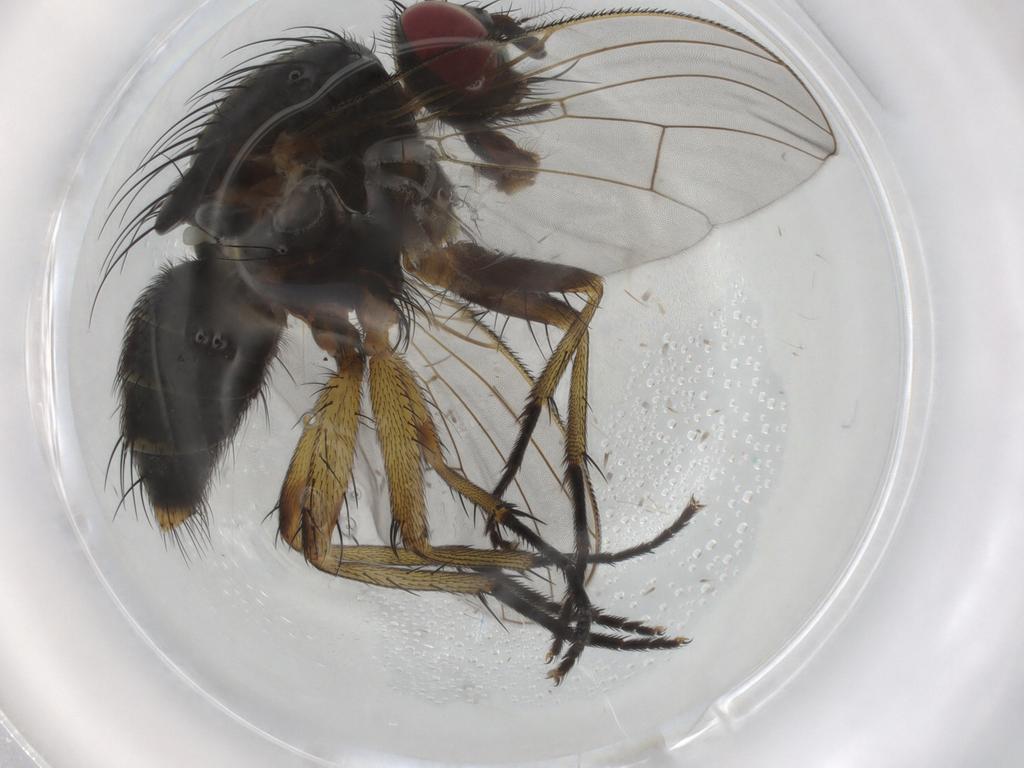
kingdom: Animalia
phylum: Arthropoda
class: Insecta
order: Diptera
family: Muscidae
